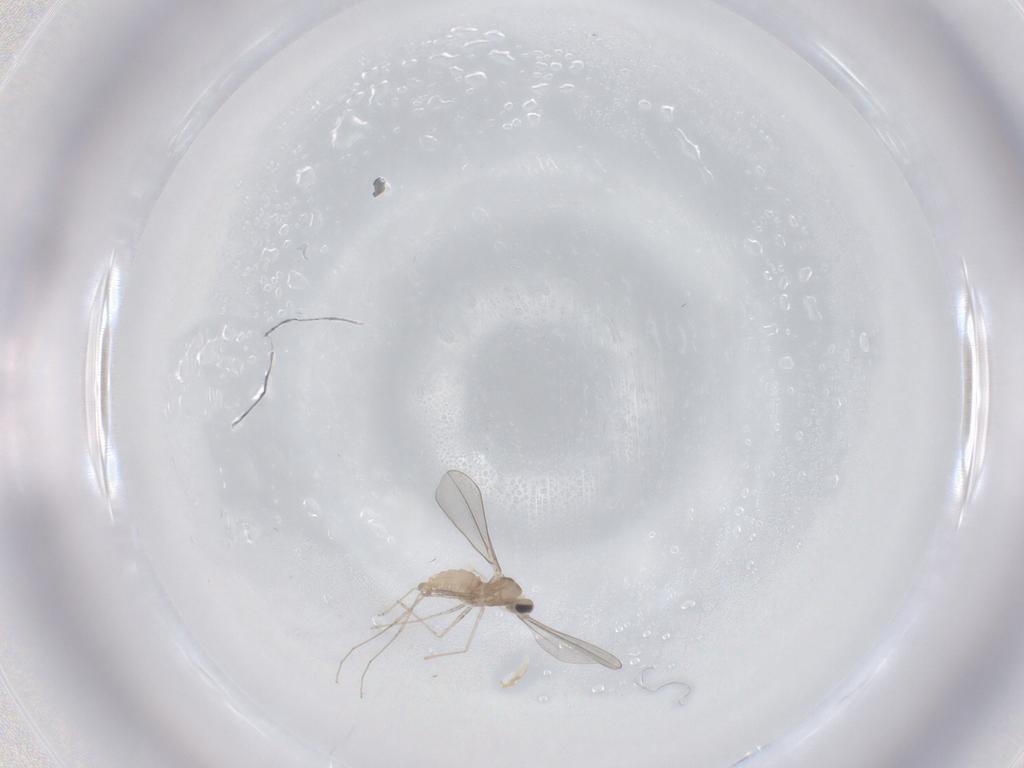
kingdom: Animalia
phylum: Arthropoda
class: Insecta
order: Diptera
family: Cecidomyiidae
